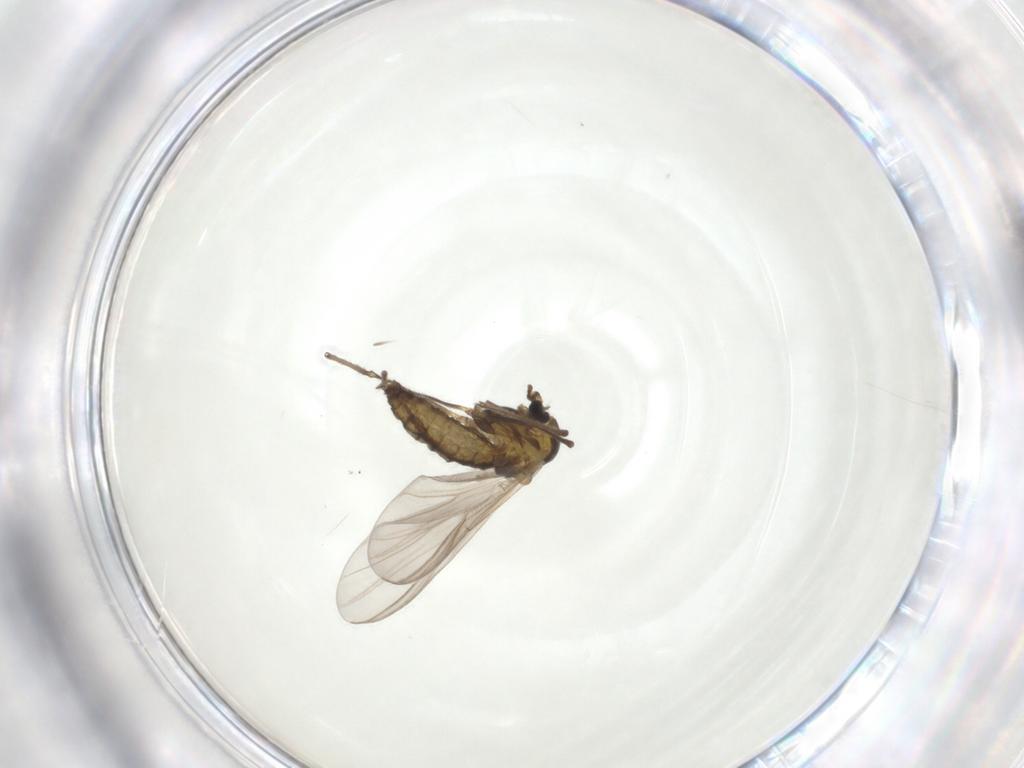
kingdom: Animalia
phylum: Arthropoda
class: Insecta
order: Diptera
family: Chironomidae
